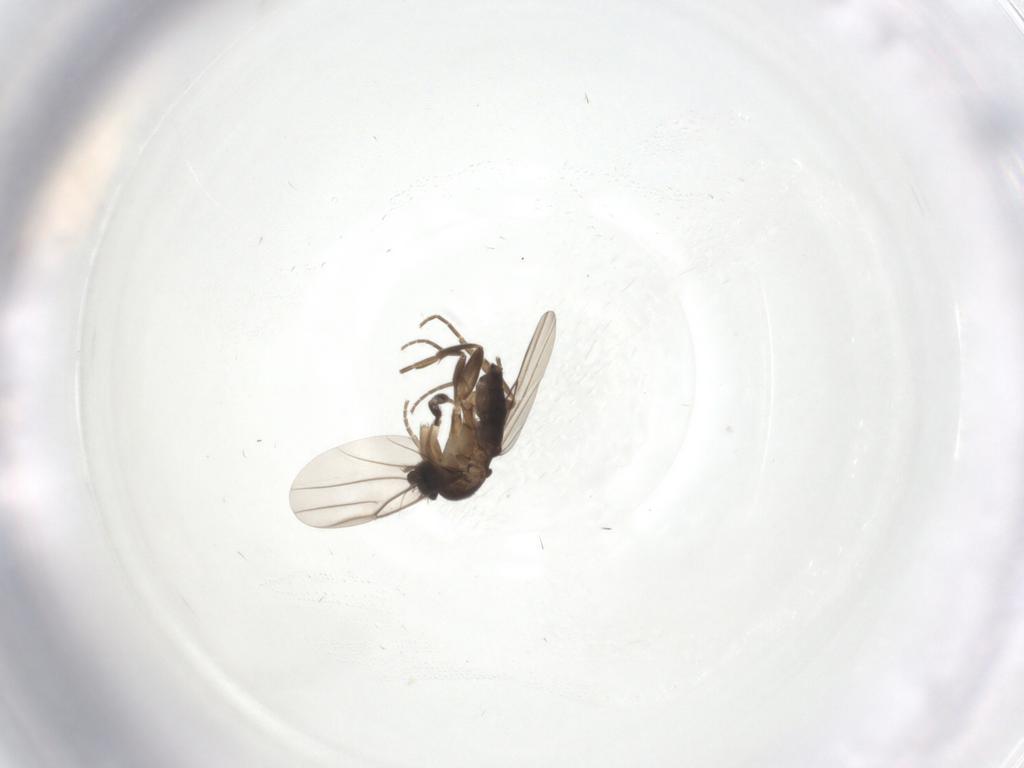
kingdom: Animalia
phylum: Arthropoda
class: Insecta
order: Diptera
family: Phoridae
